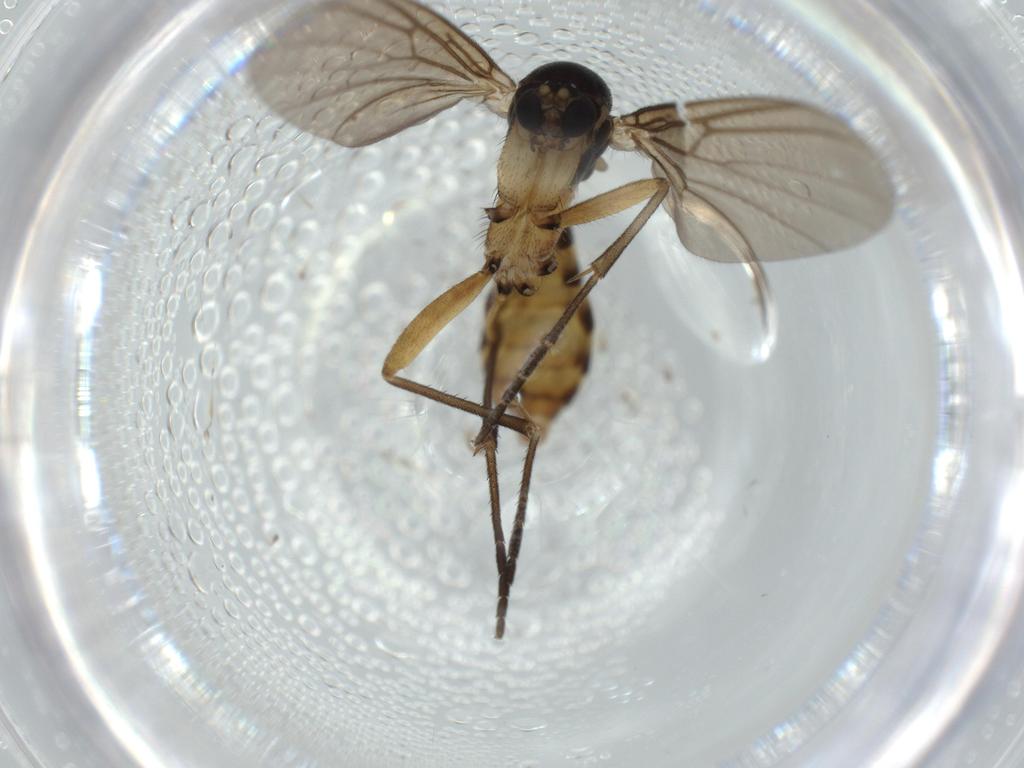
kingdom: Animalia
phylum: Arthropoda
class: Insecta
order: Diptera
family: Mycetophilidae
